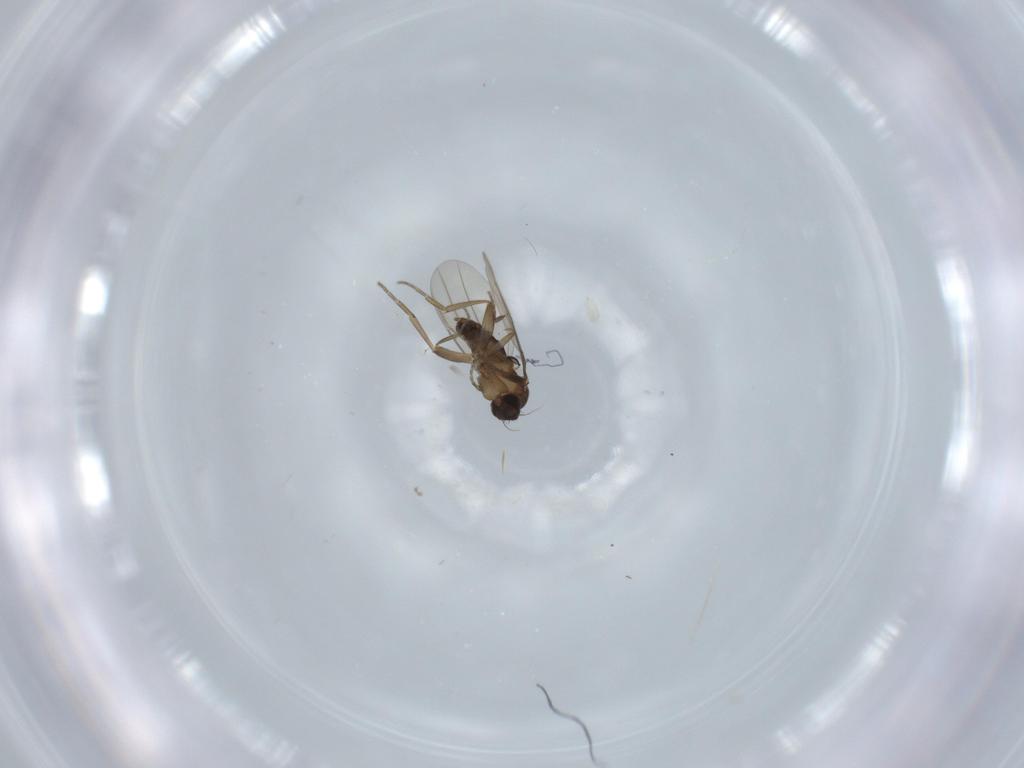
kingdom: Animalia
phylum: Arthropoda
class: Insecta
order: Diptera
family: Phoridae
